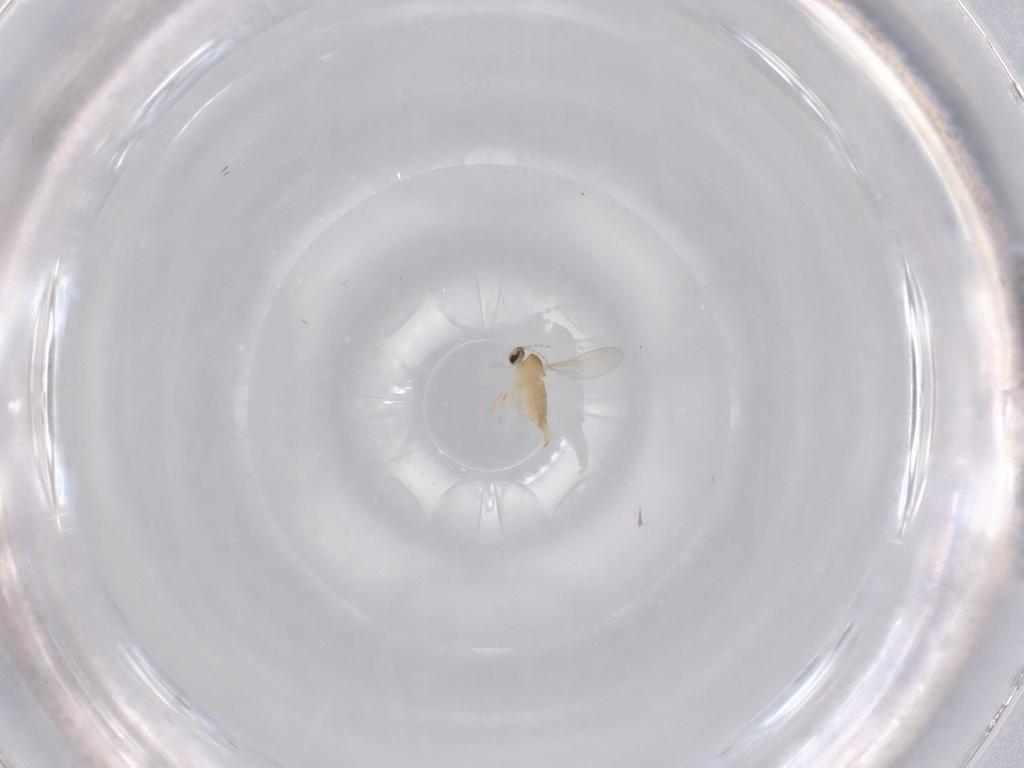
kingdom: Animalia
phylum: Arthropoda
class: Insecta
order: Diptera
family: Cecidomyiidae
